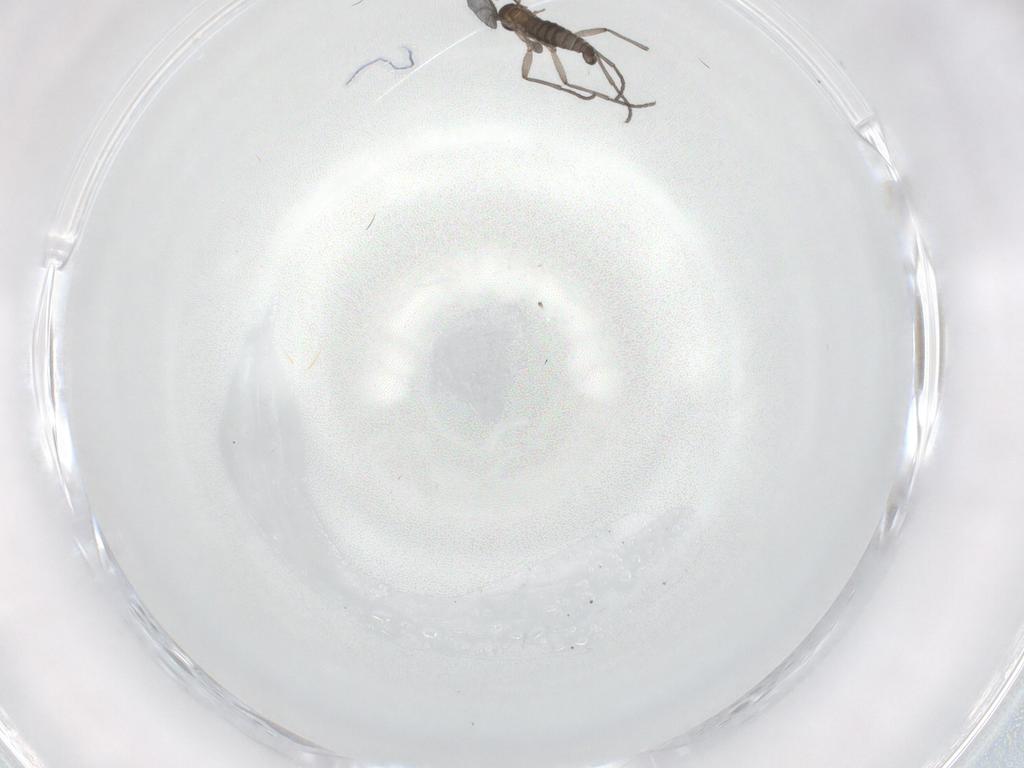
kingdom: Animalia
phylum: Arthropoda
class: Insecta
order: Diptera
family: Sciaridae
